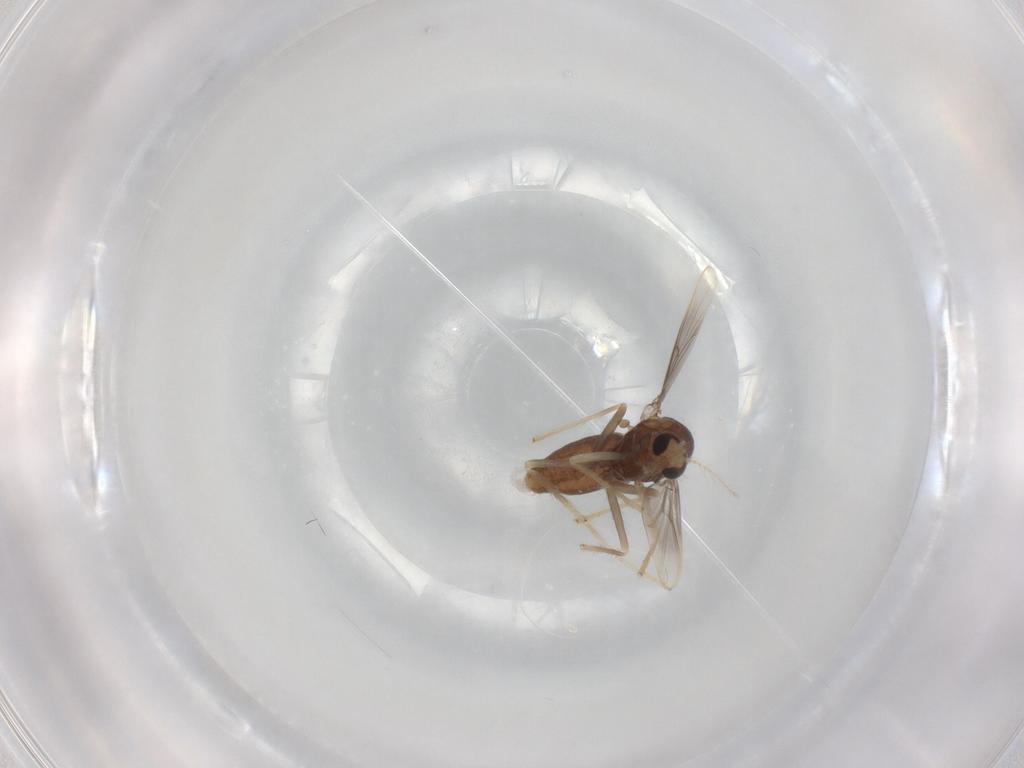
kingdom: Animalia
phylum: Arthropoda
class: Insecta
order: Diptera
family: Chironomidae
